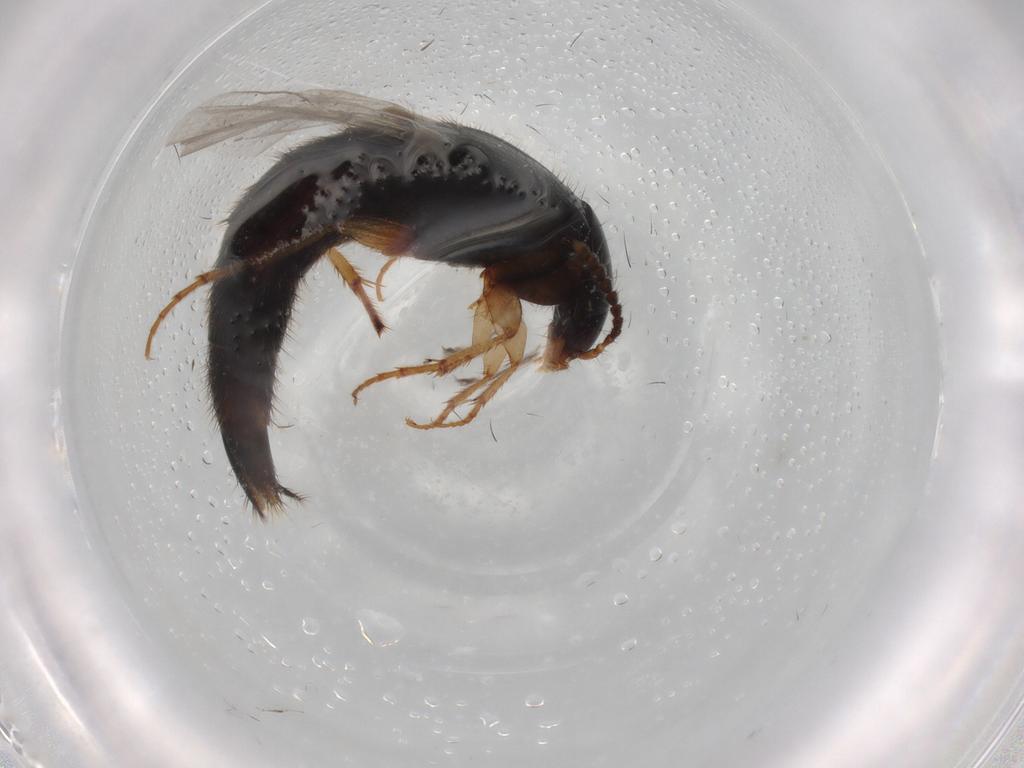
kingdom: Animalia
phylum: Arthropoda
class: Insecta
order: Coleoptera
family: Staphylinidae
